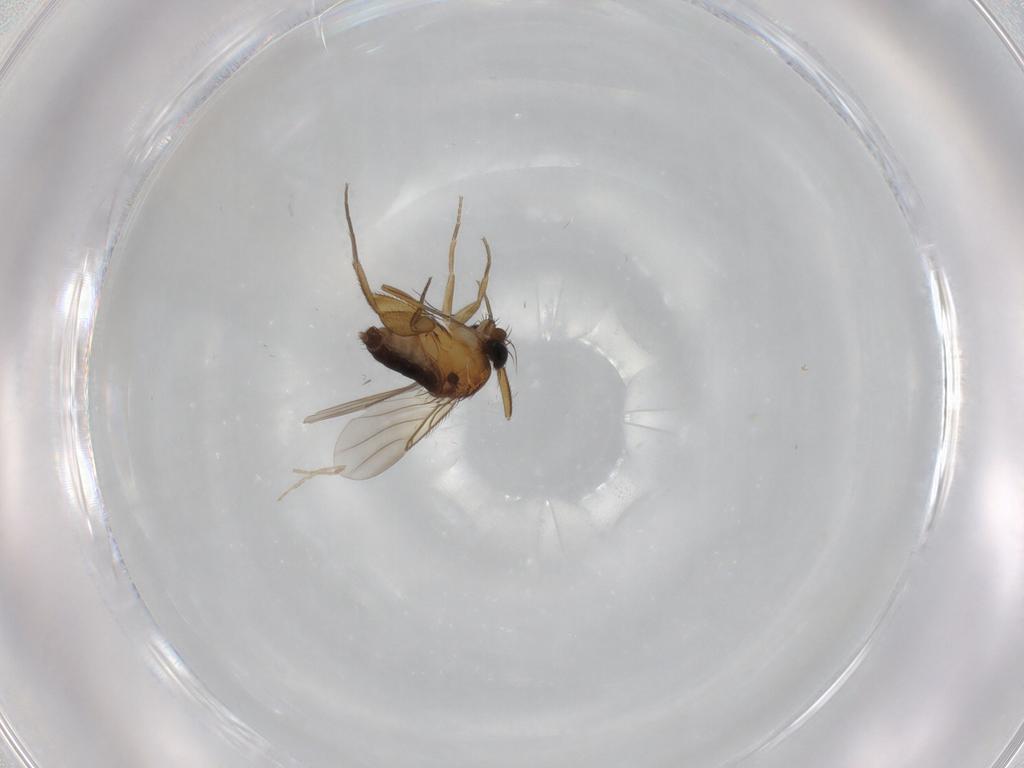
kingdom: Animalia
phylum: Arthropoda
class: Insecta
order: Diptera
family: Phoridae
